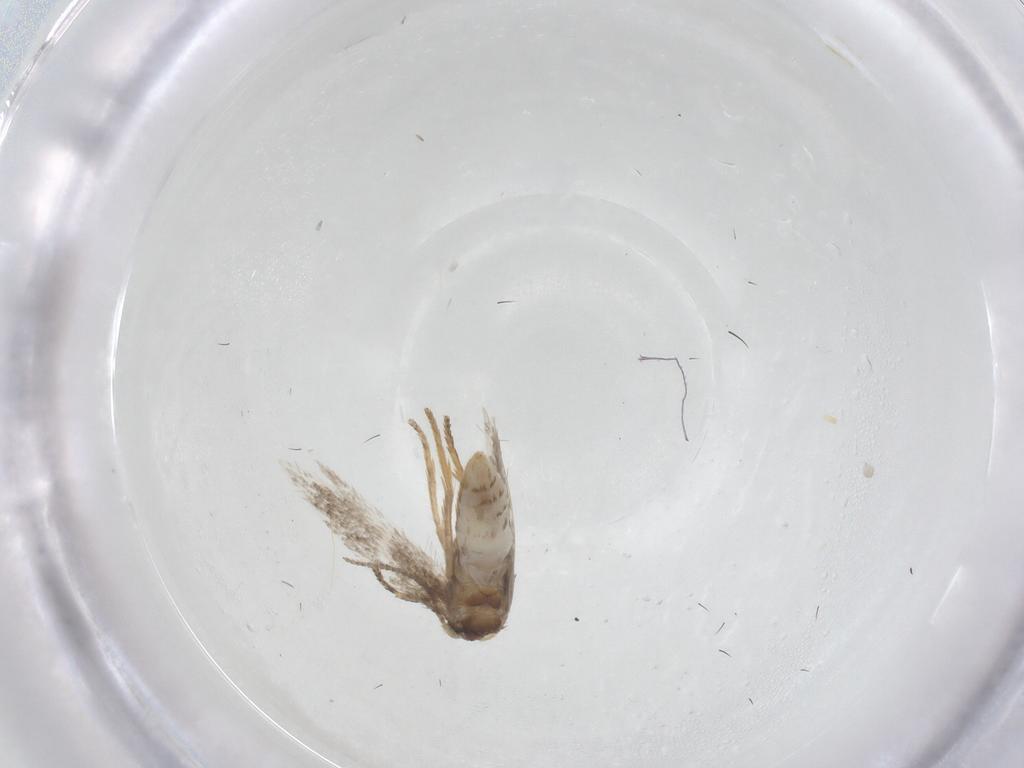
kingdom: Animalia
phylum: Arthropoda
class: Insecta
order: Lepidoptera
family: Nepticulidae
